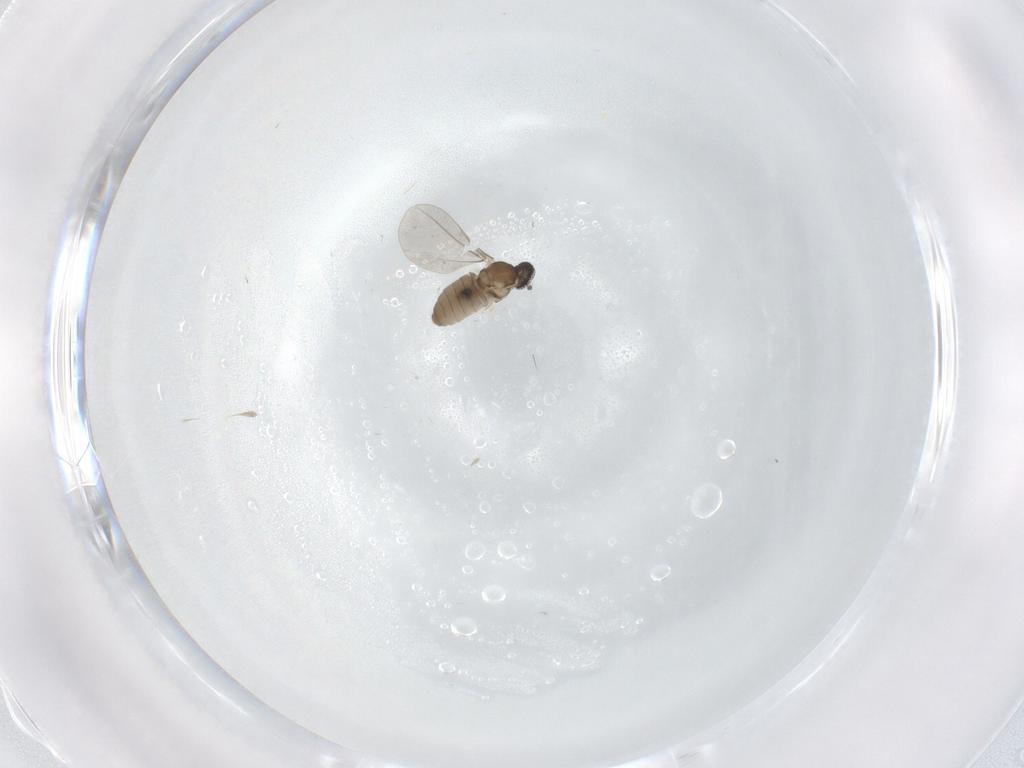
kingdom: Animalia
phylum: Arthropoda
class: Insecta
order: Diptera
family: Cecidomyiidae
